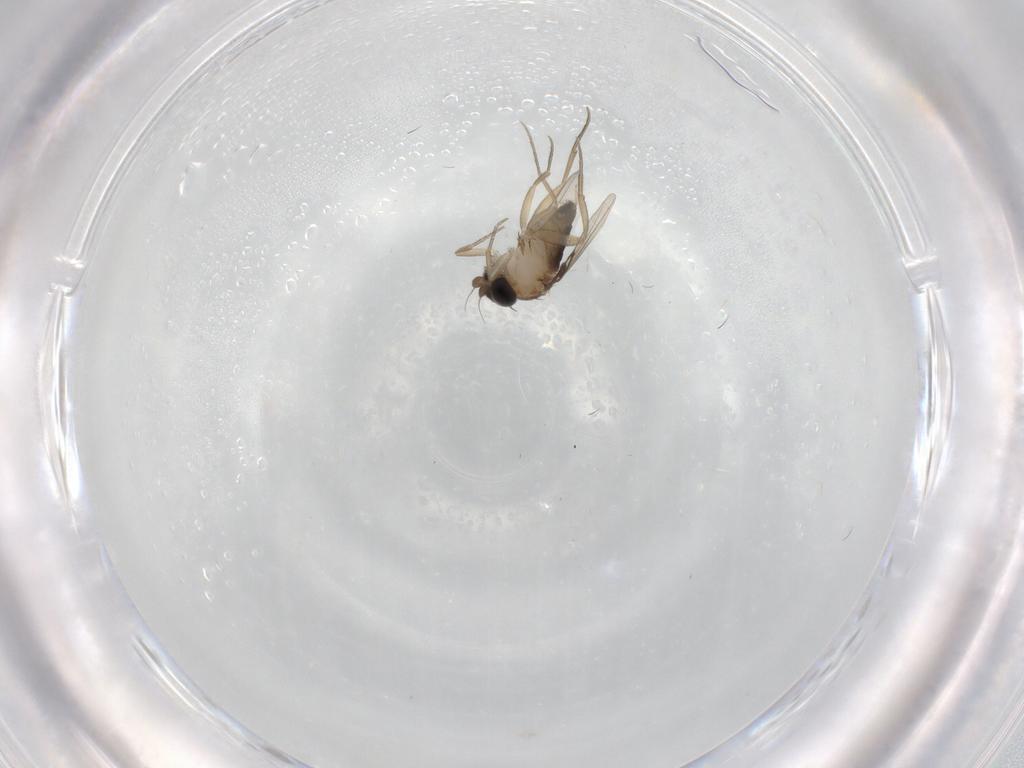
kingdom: Animalia
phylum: Arthropoda
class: Insecta
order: Diptera
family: Phoridae
